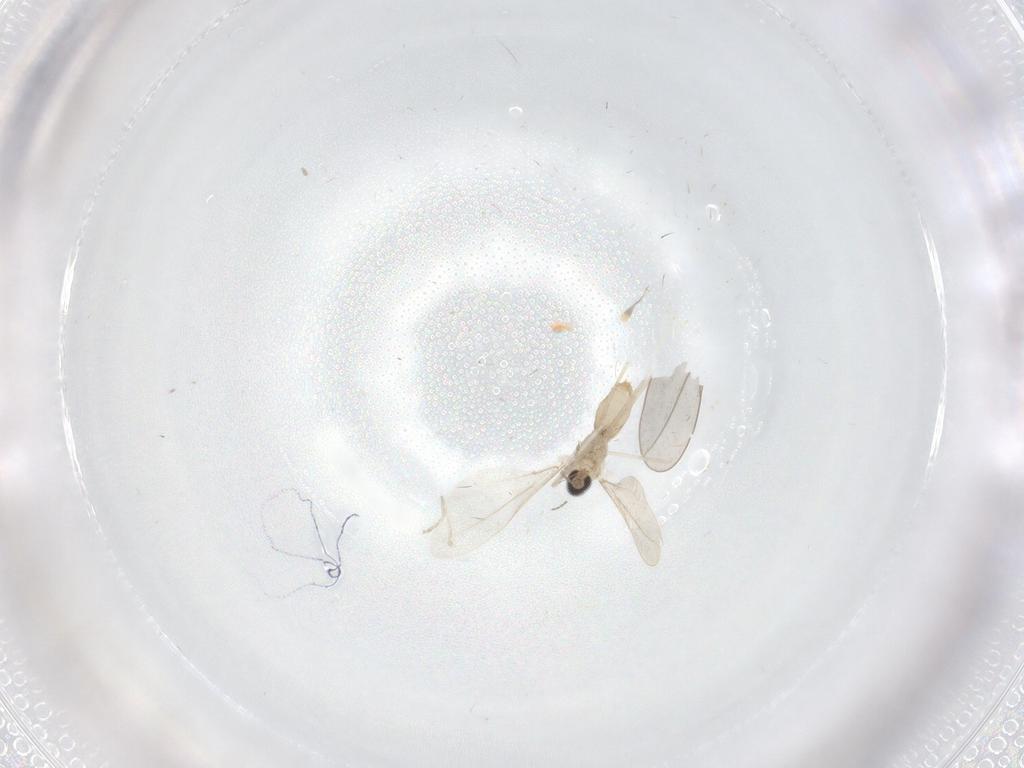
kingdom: Animalia
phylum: Arthropoda
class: Insecta
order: Diptera
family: Cecidomyiidae
